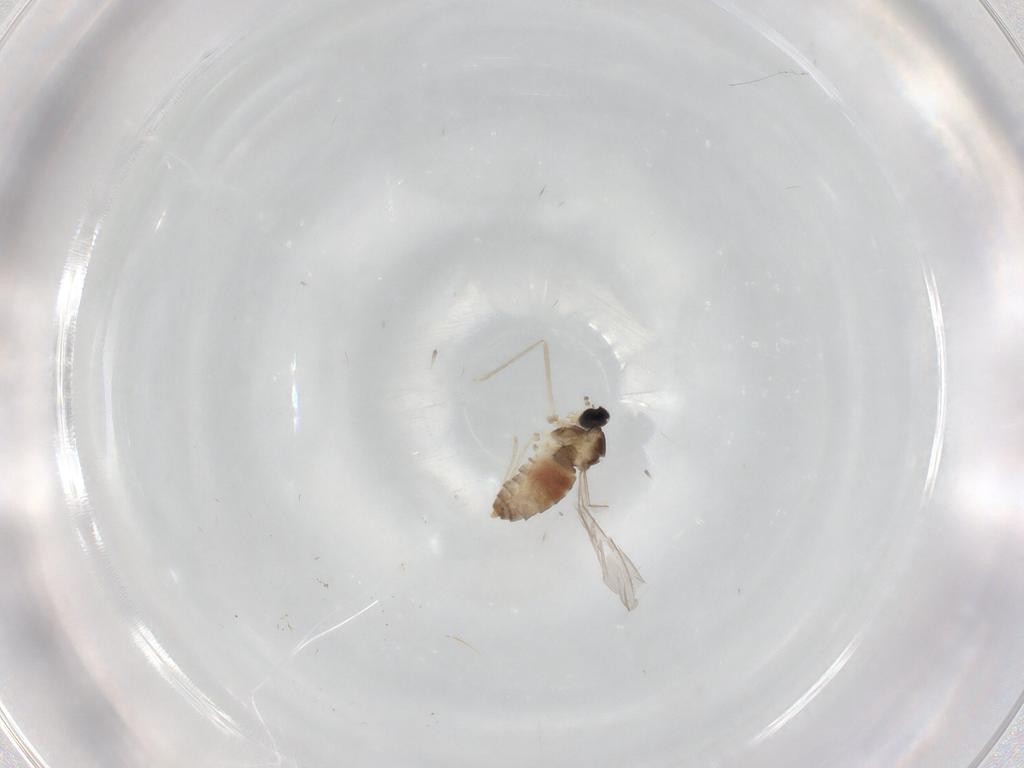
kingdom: Animalia
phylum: Arthropoda
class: Insecta
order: Diptera
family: Cecidomyiidae
